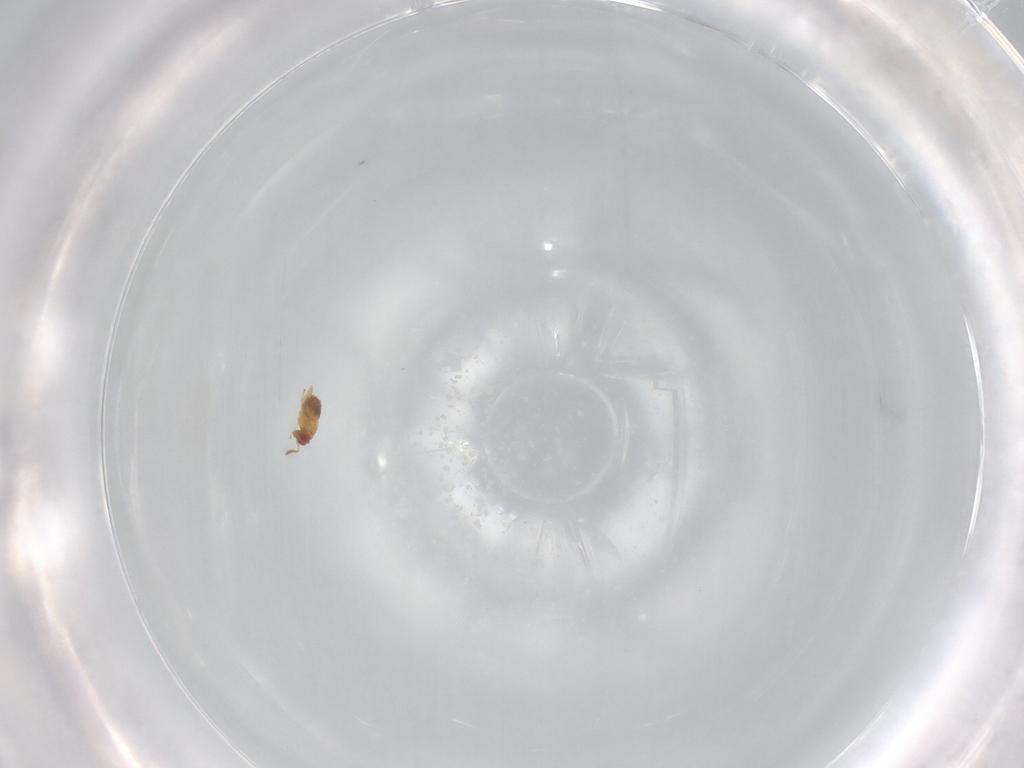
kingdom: Animalia
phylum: Arthropoda
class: Insecta
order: Hymenoptera
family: Trichogrammatidae
